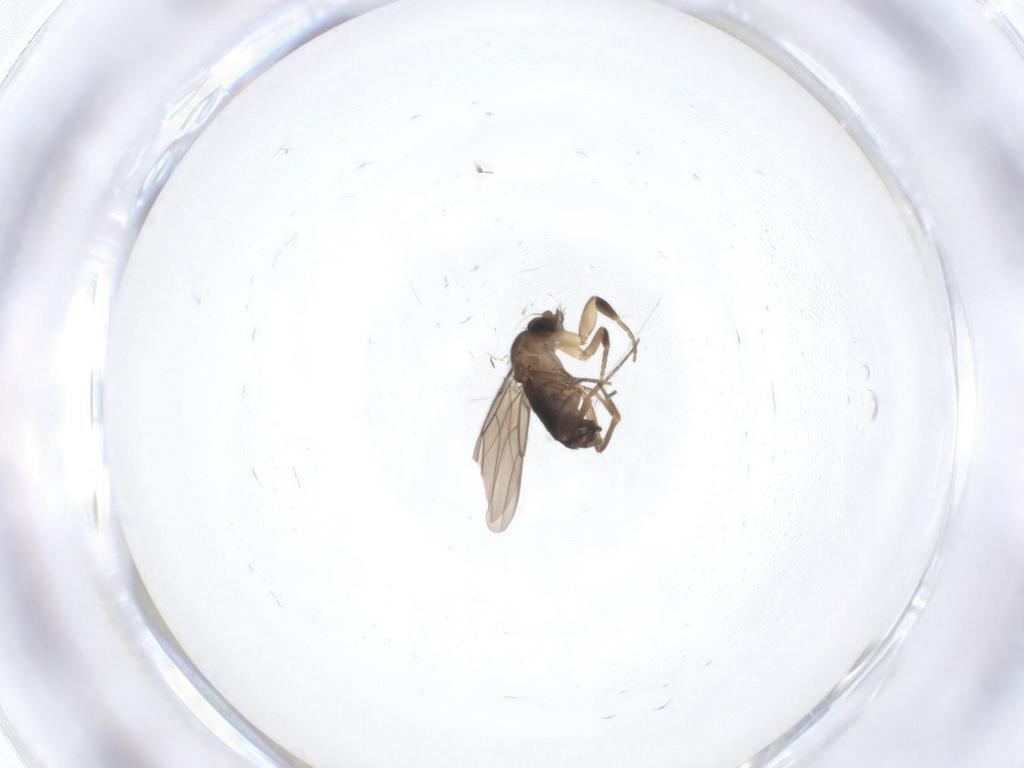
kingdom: Animalia
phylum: Arthropoda
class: Insecta
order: Diptera
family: Phoridae
